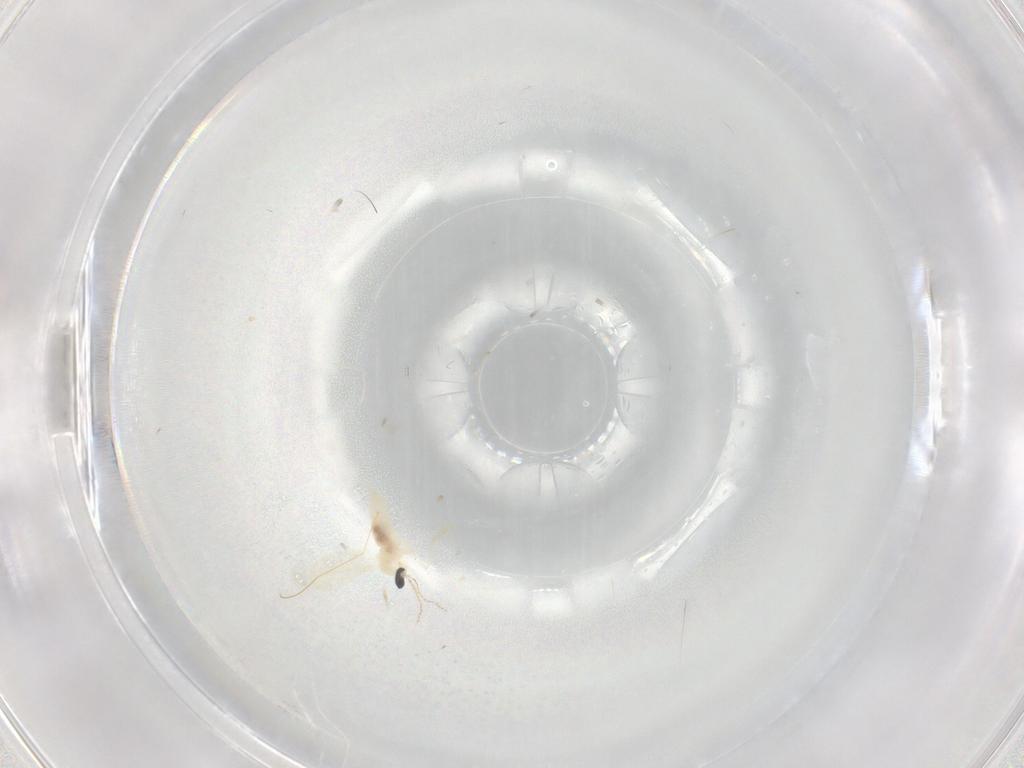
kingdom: Animalia
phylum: Arthropoda
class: Insecta
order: Diptera
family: Cecidomyiidae
